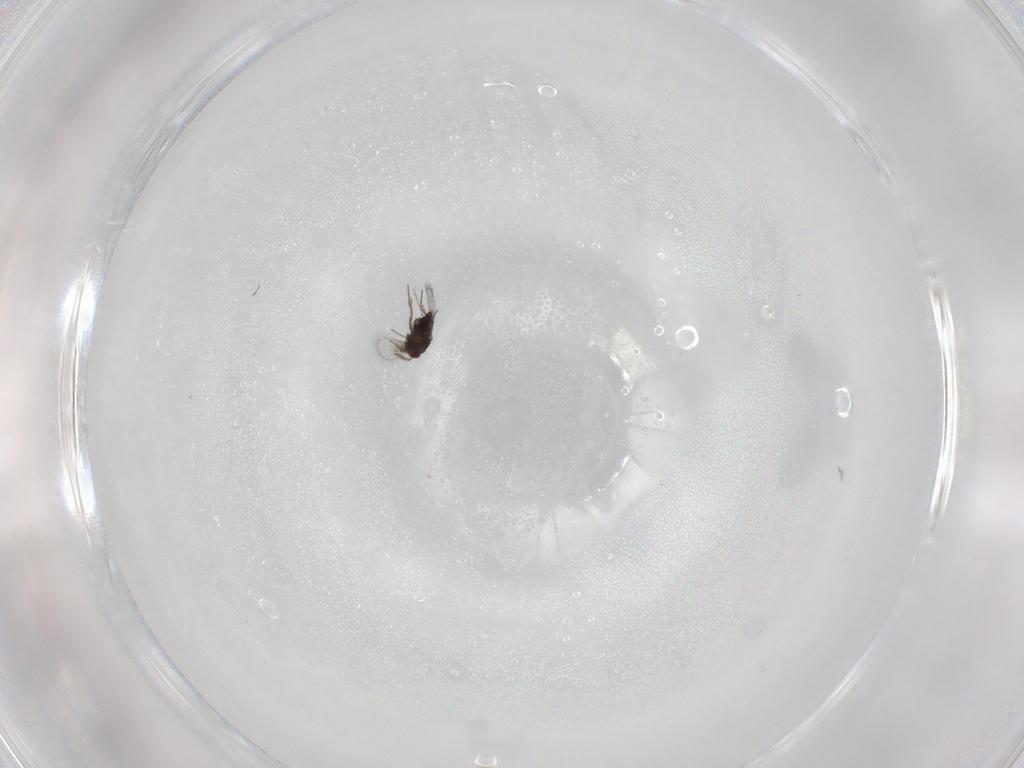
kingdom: Animalia
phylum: Arthropoda
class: Insecta
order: Hymenoptera
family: Trichogrammatidae
